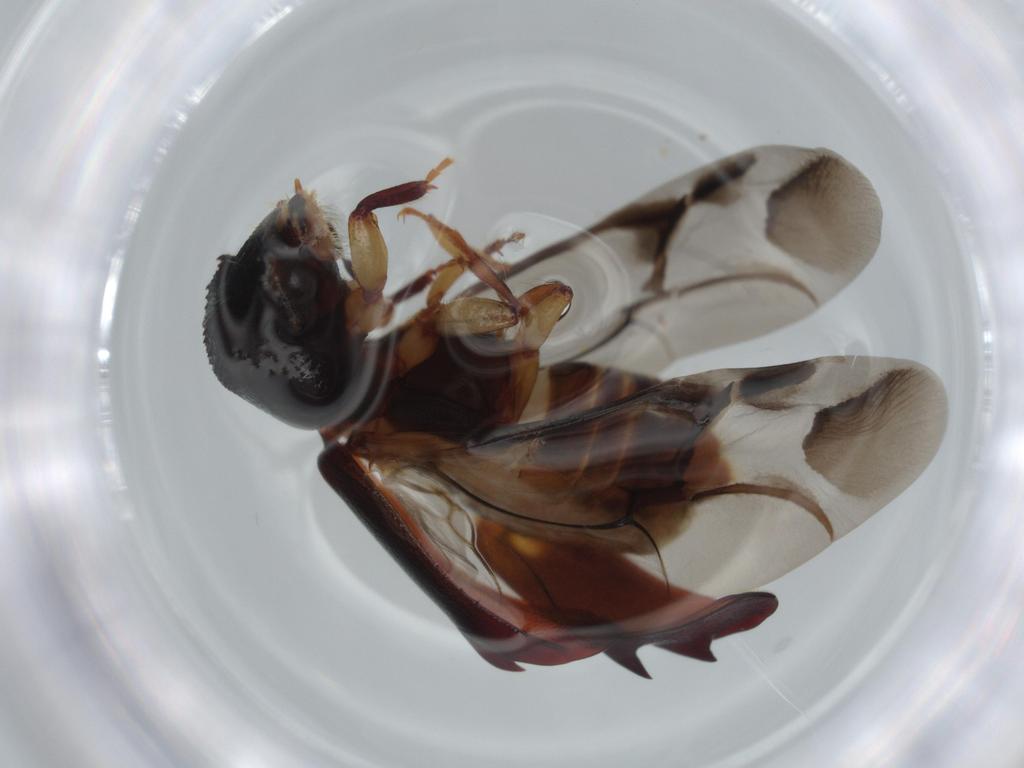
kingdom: Animalia
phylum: Arthropoda
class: Insecta
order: Coleoptera
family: Bostrichidae
